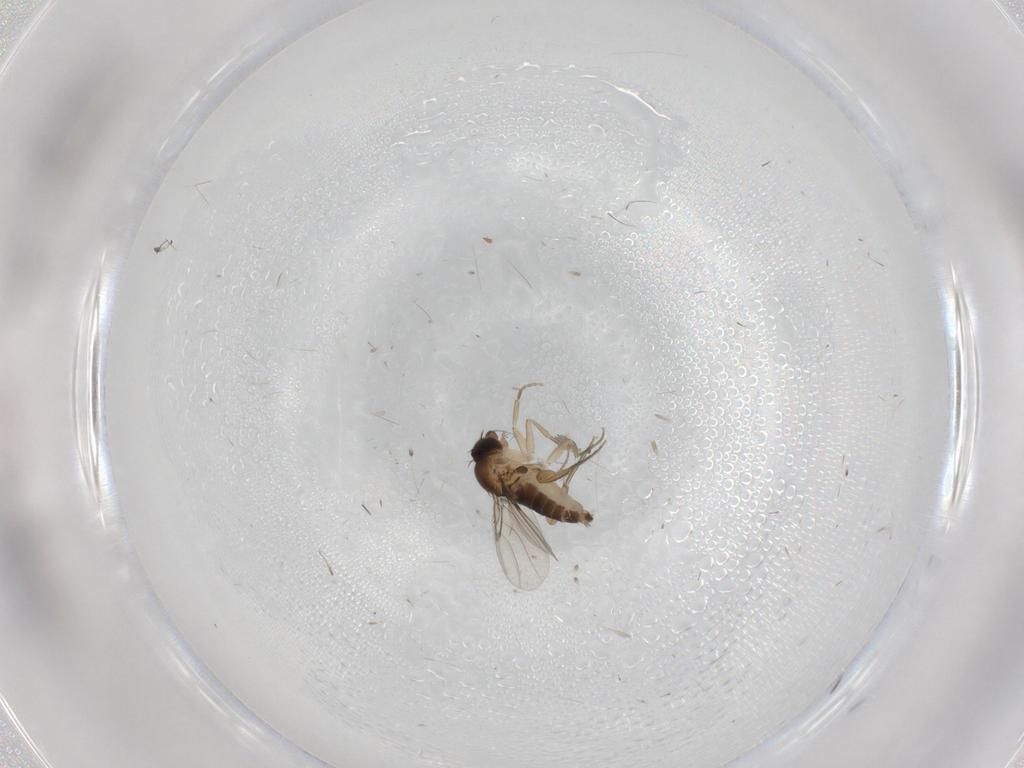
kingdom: Animalia
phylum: Arthropoda
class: Insecta
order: Diptera
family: Phoridae
